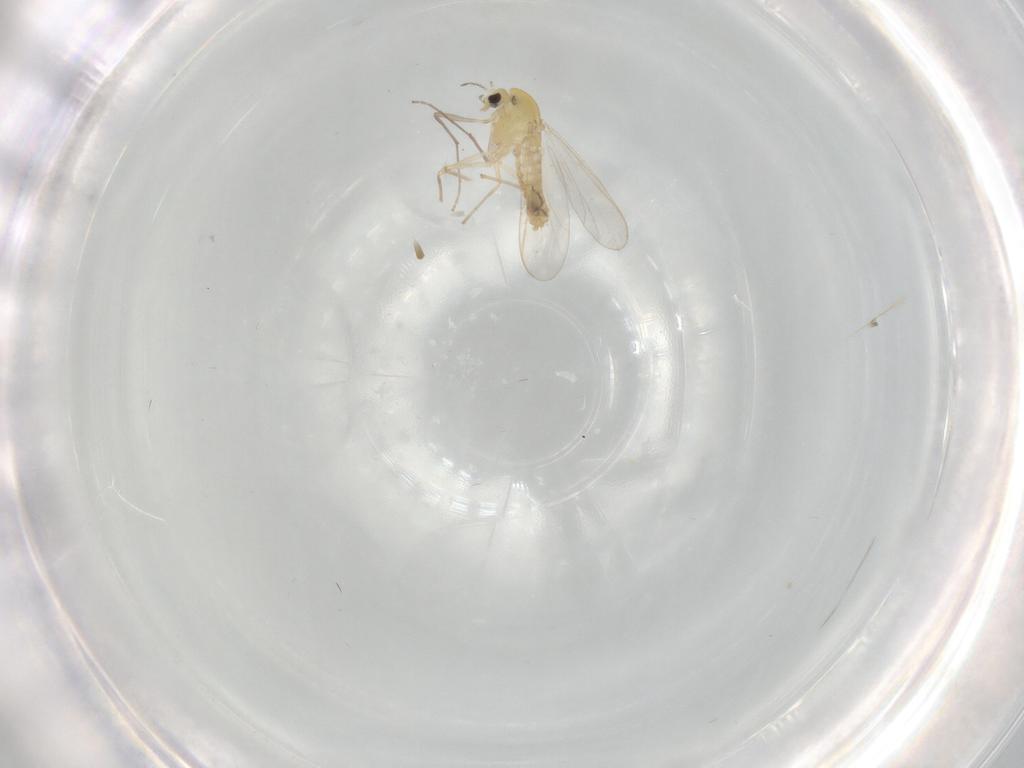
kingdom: Animalia
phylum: Arthropoda
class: Insecta
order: Diptera
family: Chironomidae
